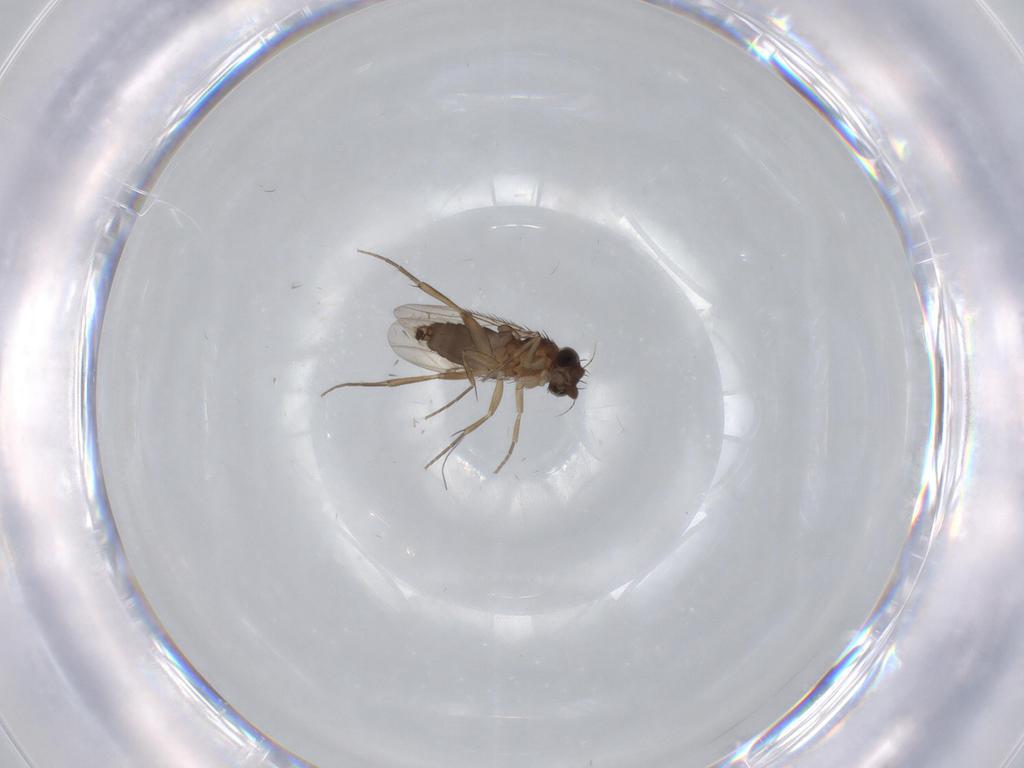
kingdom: Animalia
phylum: Arthropoda
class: Insecta
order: Diptera
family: Phoridae
